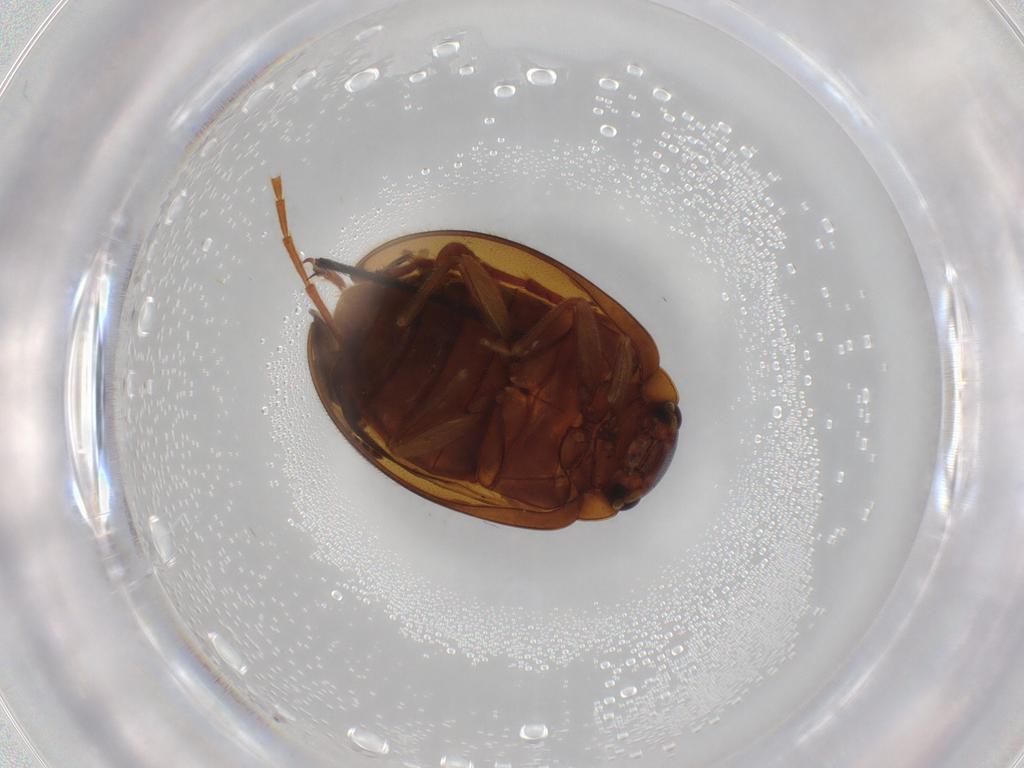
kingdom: Animalia
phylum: Arthropoda
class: Insecta
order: Coleoptera
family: Scirtidae
